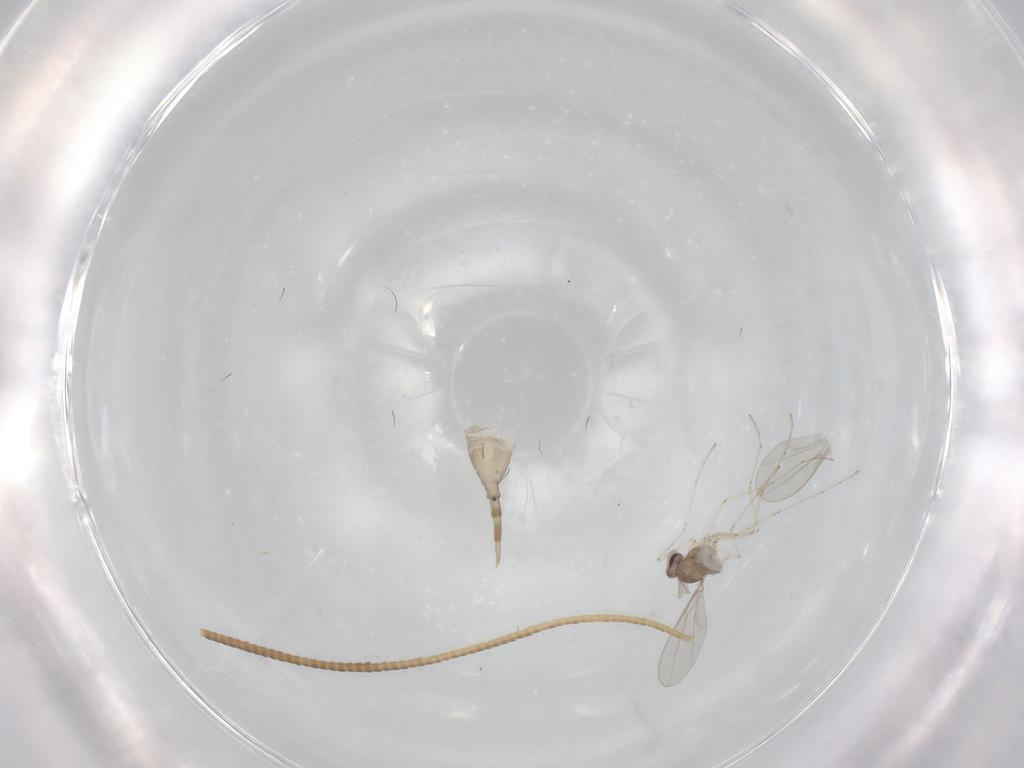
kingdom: Animalia
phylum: Arthropoda
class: Insecta
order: Diptera
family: Cecidomyiidae
